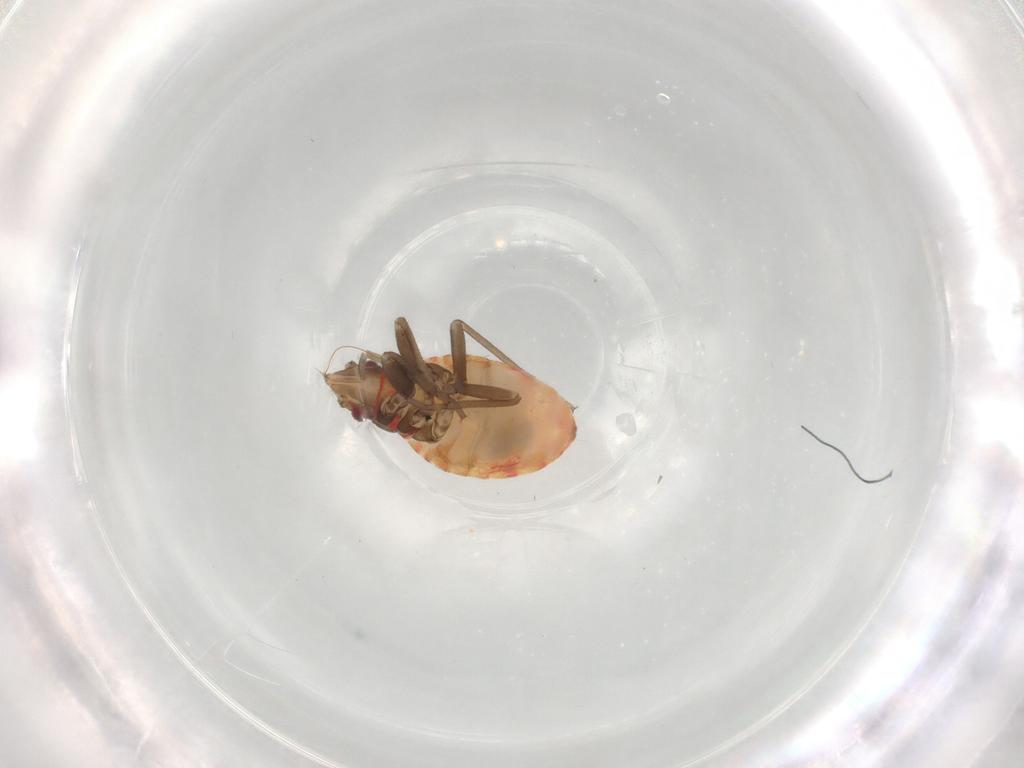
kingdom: Animalia
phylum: Arthropoda
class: Insecta
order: Hemiptera
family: Rhyparochromidae
